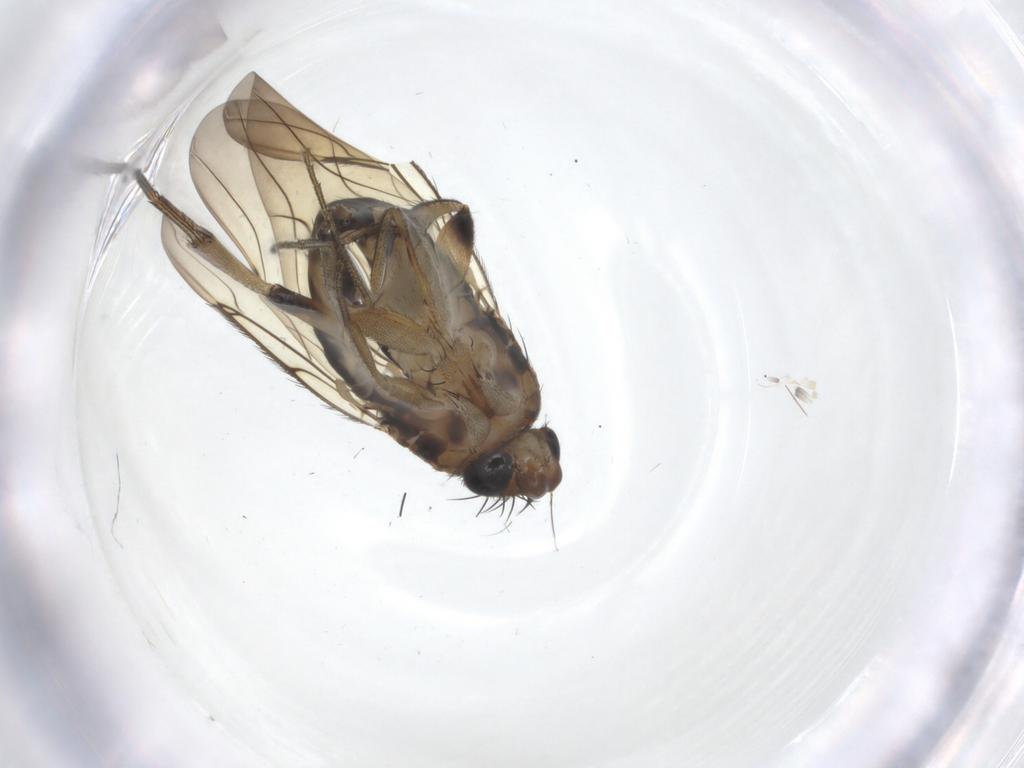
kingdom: Animalia
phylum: Arthropoda
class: Insecta
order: Diptera
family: Phoridae
